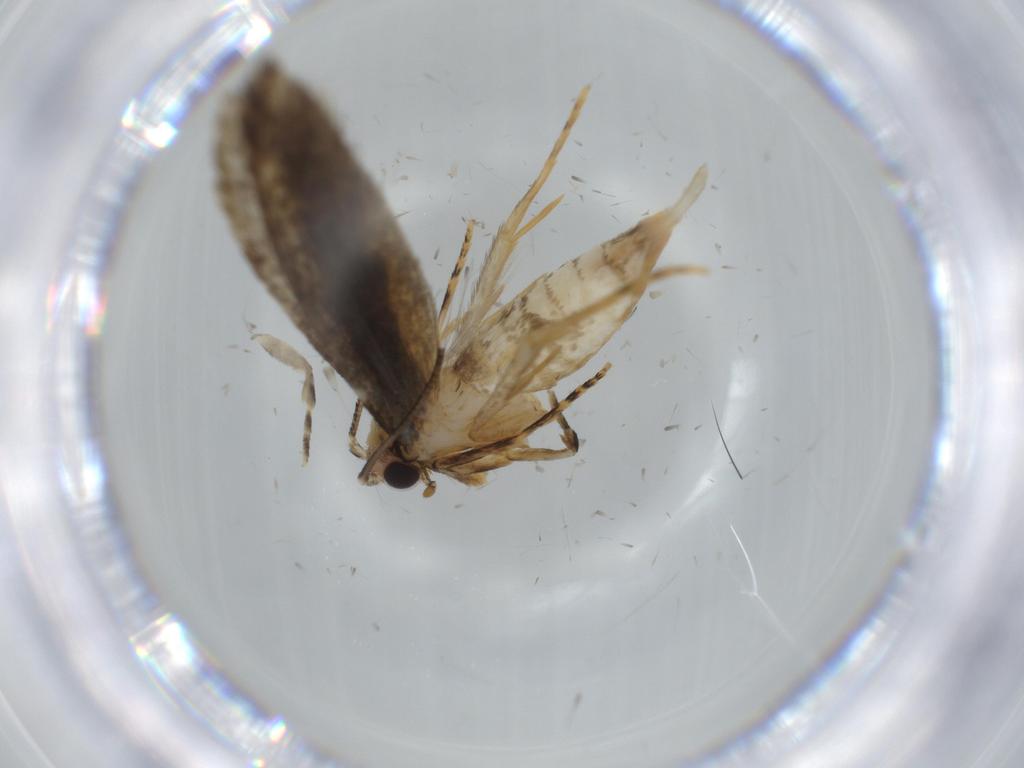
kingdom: Animalia
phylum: Arthropoda
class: Insecta
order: Lepidoptera
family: Tineidae
